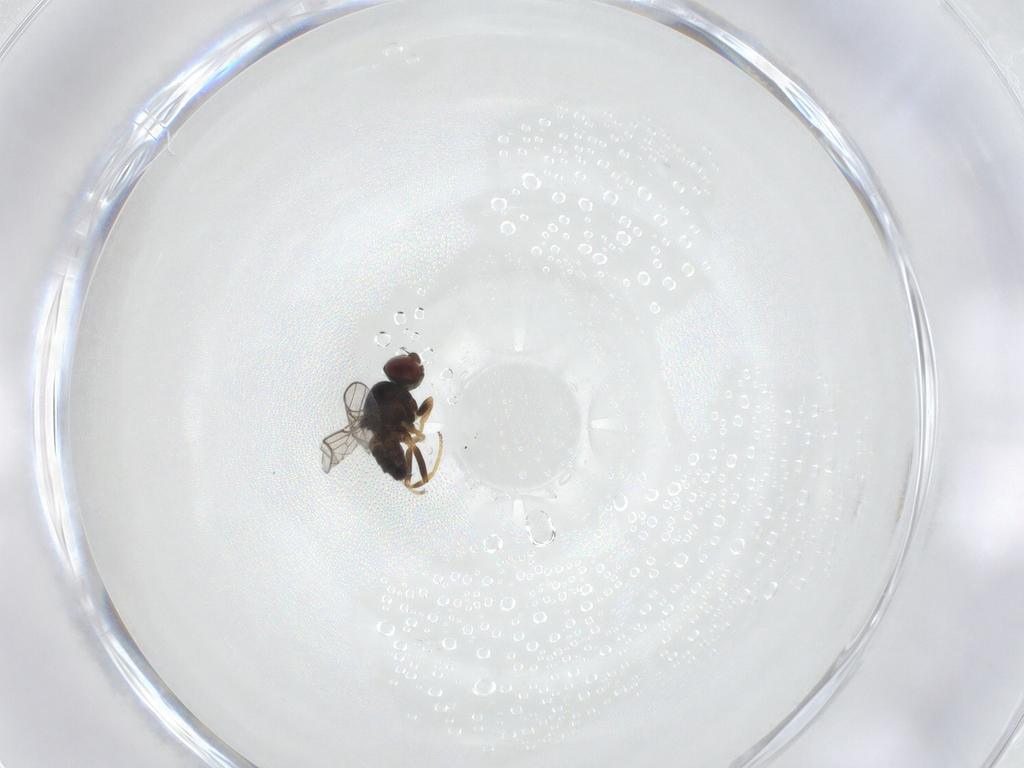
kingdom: Animalia
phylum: Arthropoda
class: Insecta
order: Diptera
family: Chloropidae
